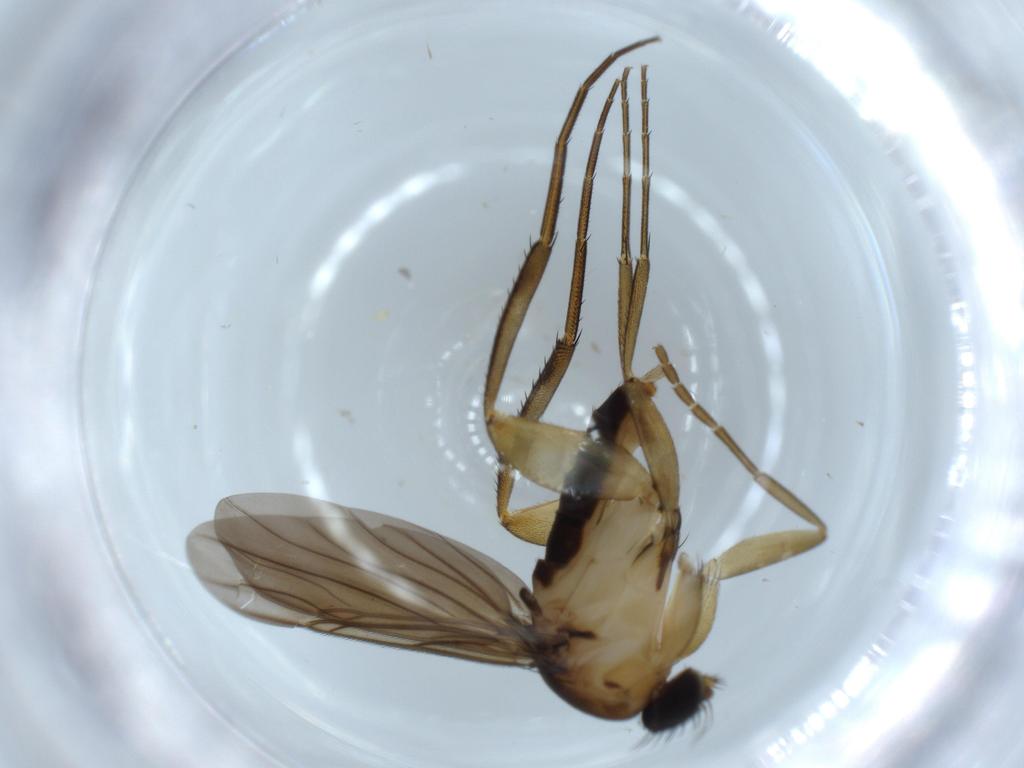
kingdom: Animalia
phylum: Arthropoda
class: Insecta
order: Diptera
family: Phoridae
